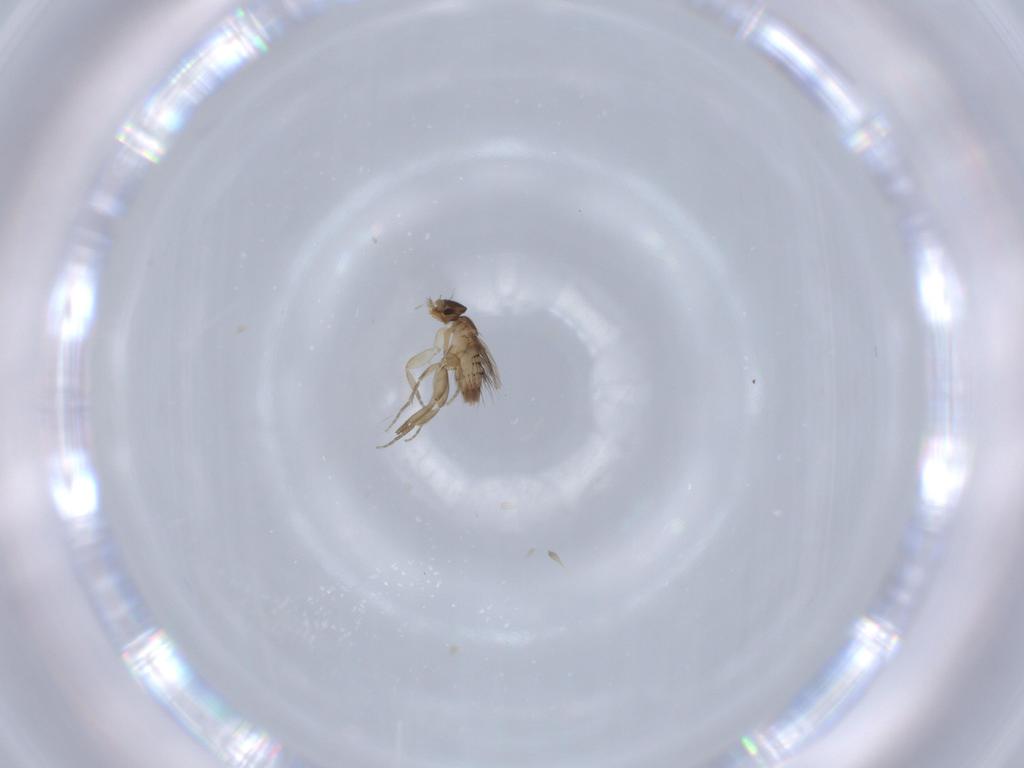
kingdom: Animalia
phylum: Arthropoda
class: Insecta
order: Diptera
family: Phoridae
